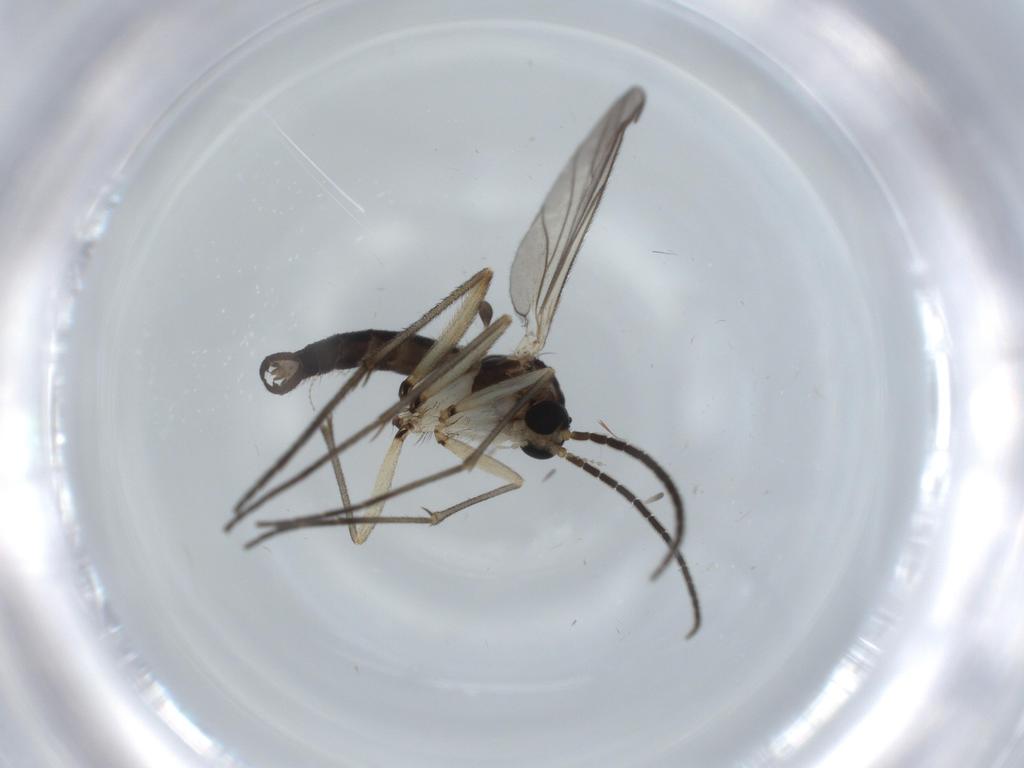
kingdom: Animalia
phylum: Arthropoda
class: Insecta
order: Diptera
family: Sciaridae
